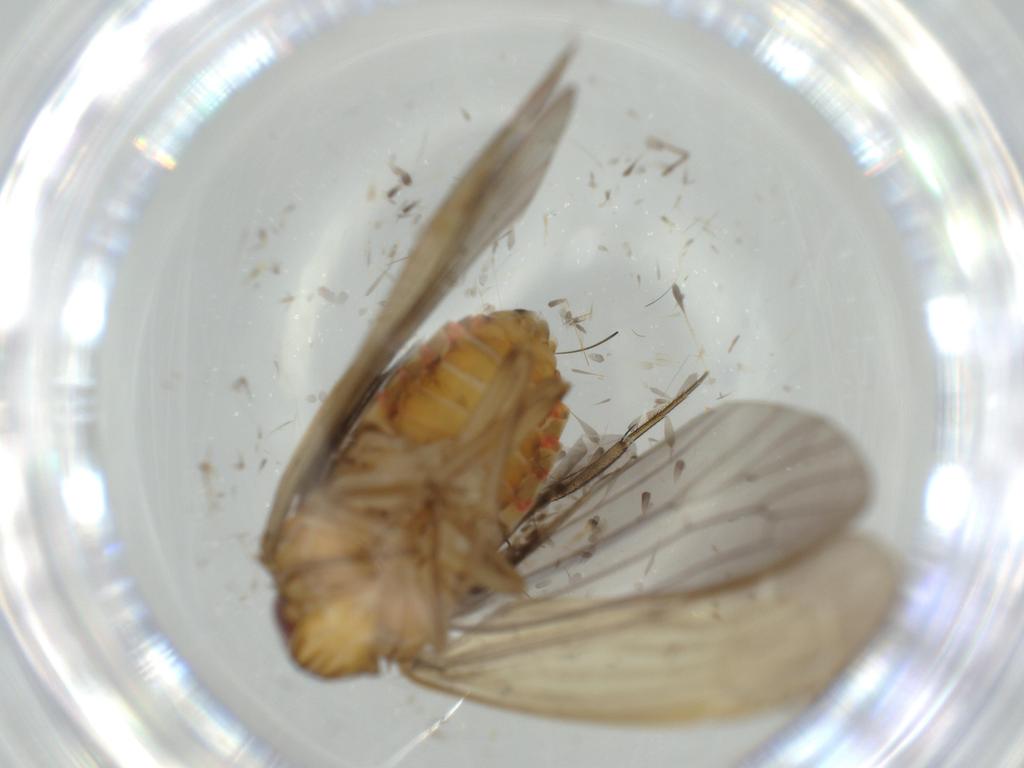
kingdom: Animalia
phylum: Arthropoda
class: Insecta
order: Hemiptera
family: Achilidae
